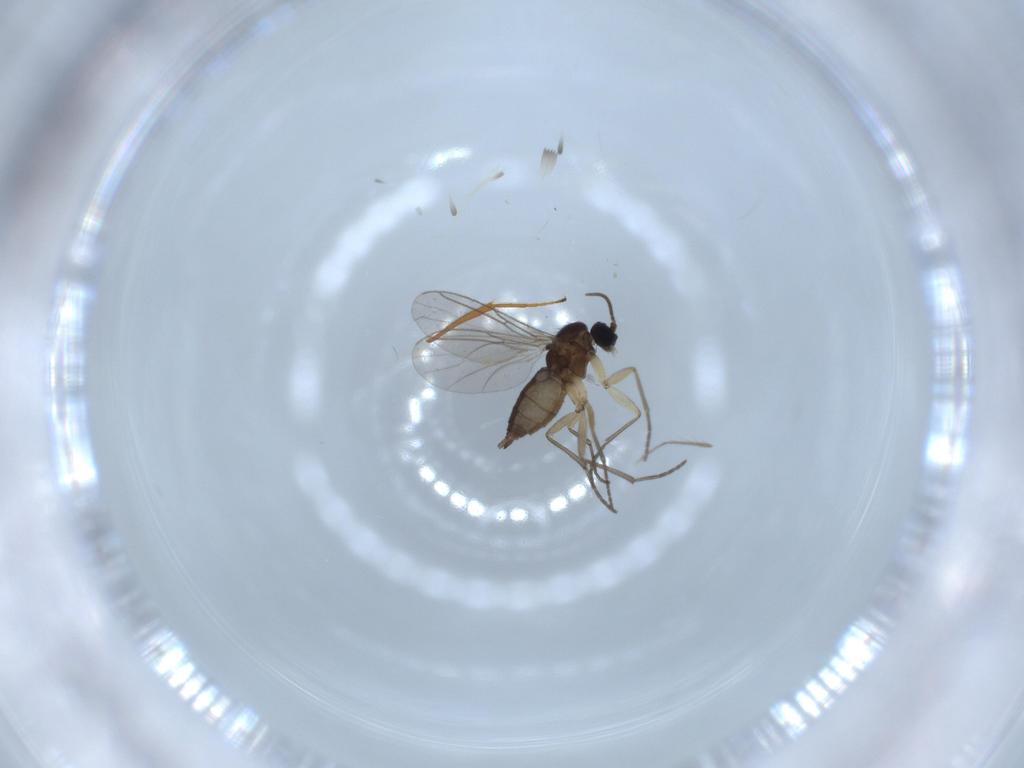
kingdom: Animalia
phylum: Arthropoda
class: Insecta
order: Diptera
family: Sciaridae
